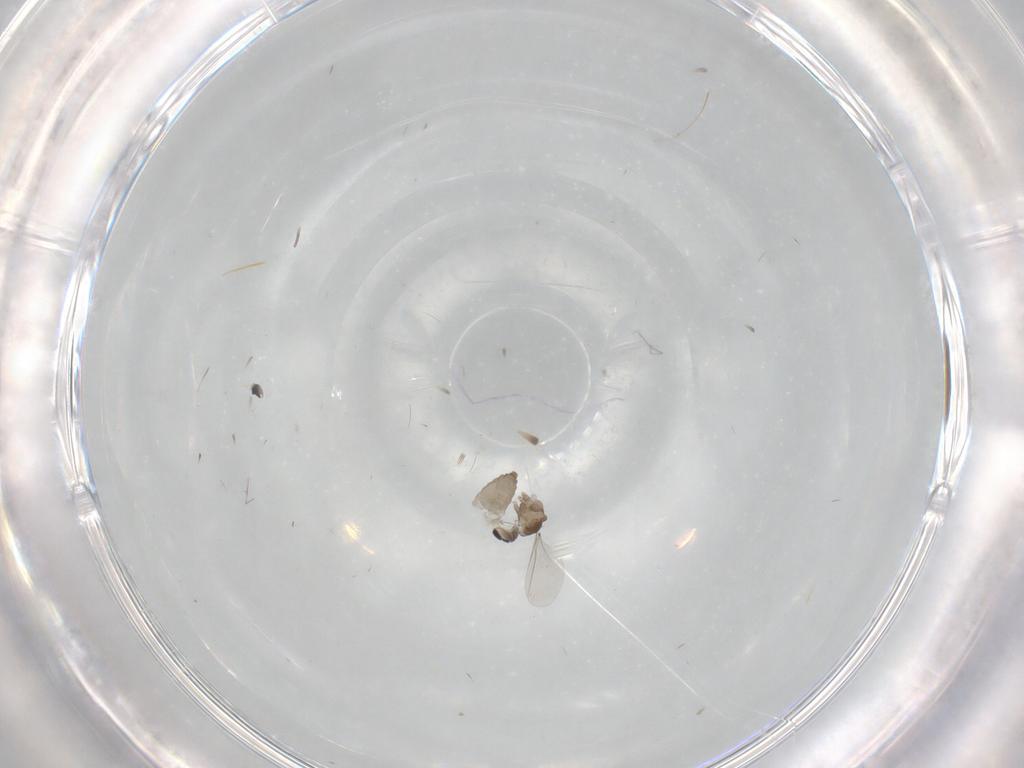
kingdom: Animalia
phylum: Arthropoda
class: Insecta
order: Diptera
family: Cecidomyiidae
